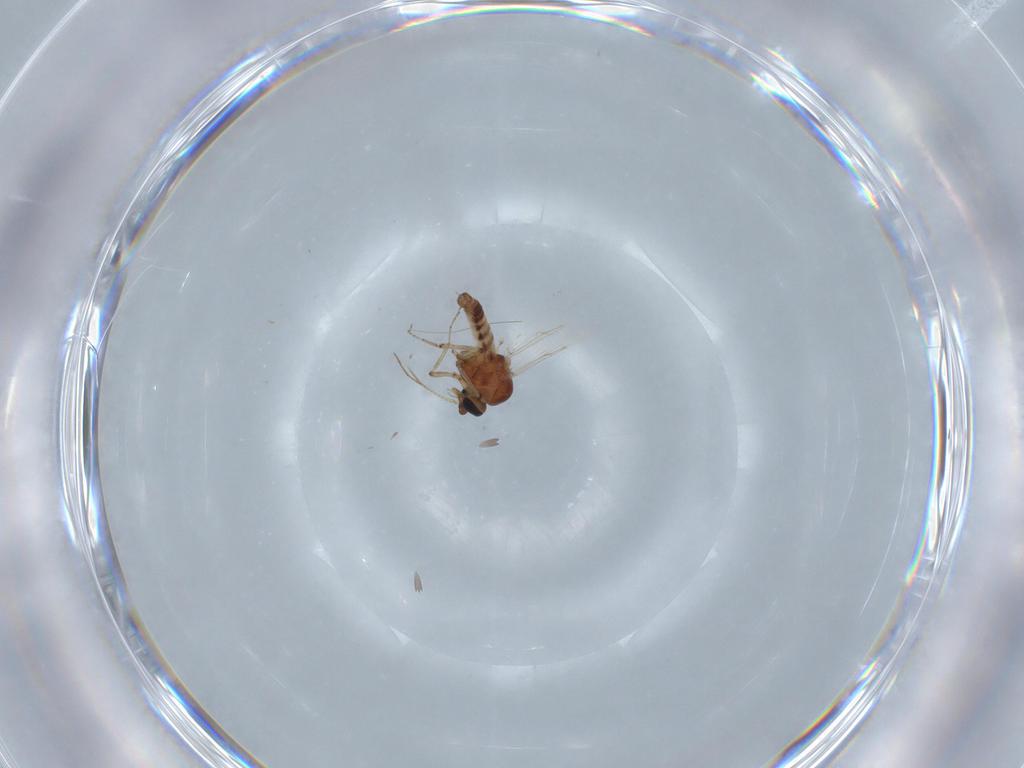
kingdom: Animalia
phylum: Arthropoda
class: Insecta
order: Diptera
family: Ceratopogonidae
